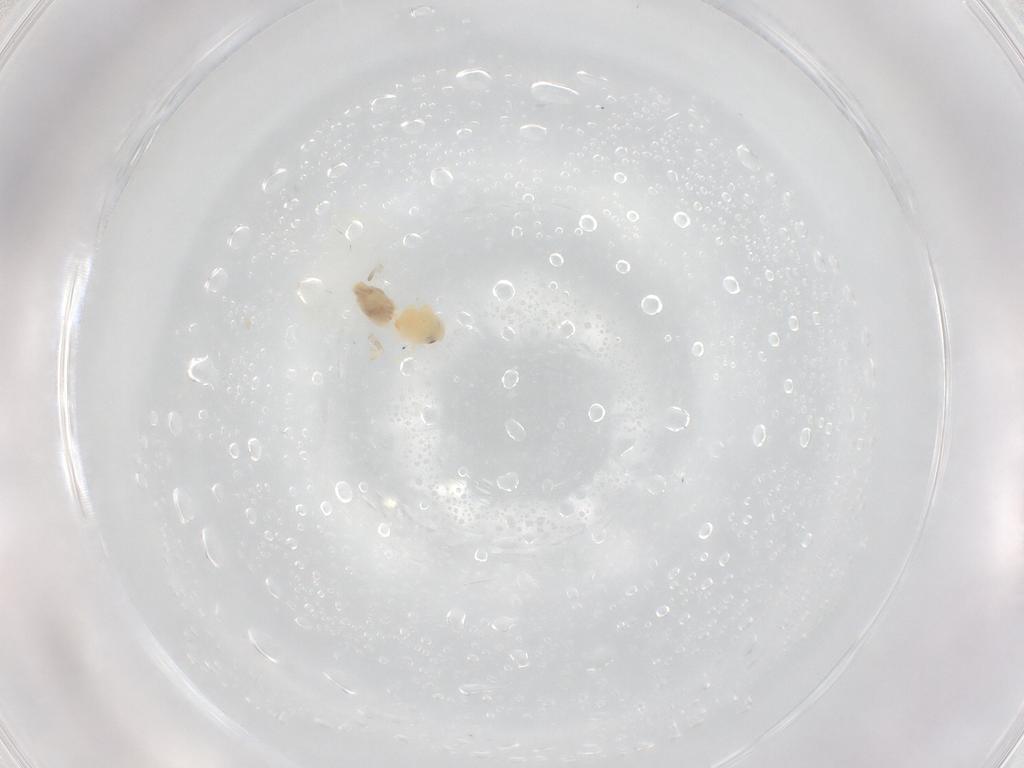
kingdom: Animalia
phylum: Arthropoda
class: Insecta
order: Hemiptera
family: Aleyrodidae
